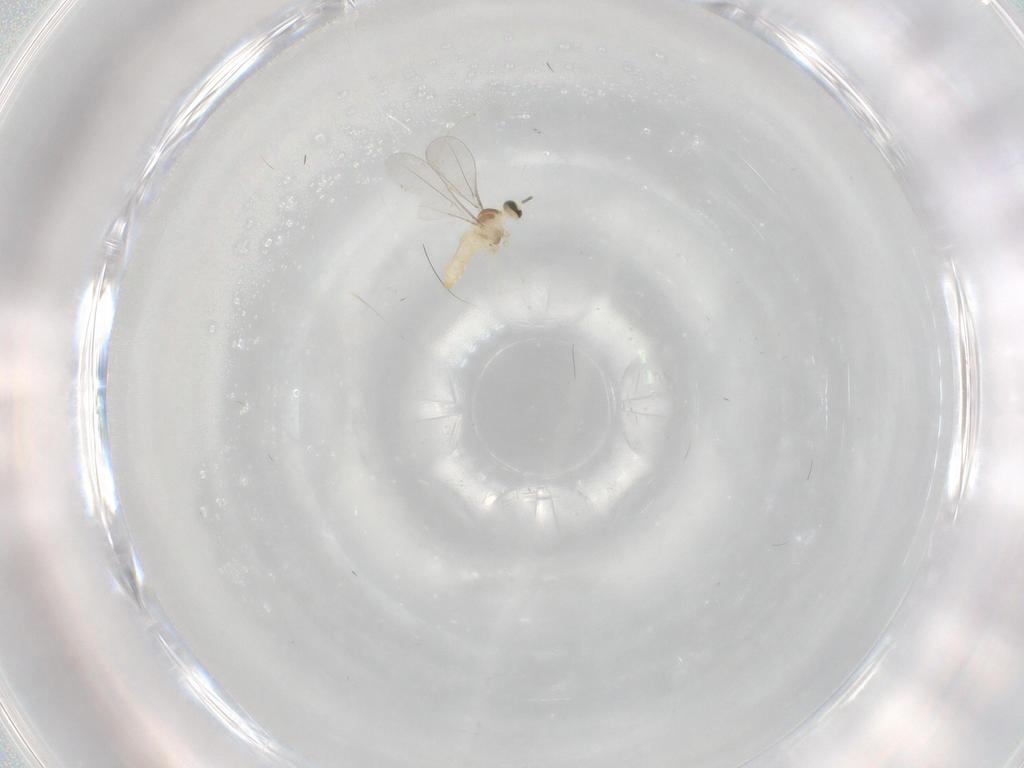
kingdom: Animalia
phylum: Arthropoda
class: Insecta
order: Diptera
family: Cecidomyiidae
